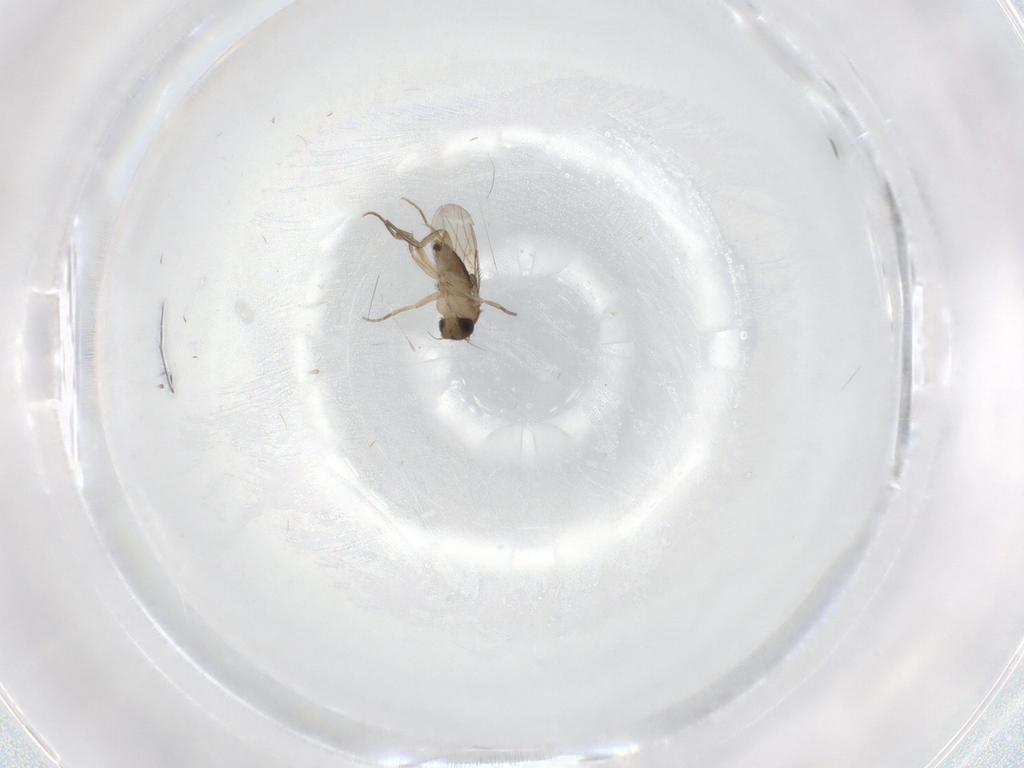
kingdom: Animalia
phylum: Arthropoda
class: Insecta
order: Diptera
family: Phoridae
